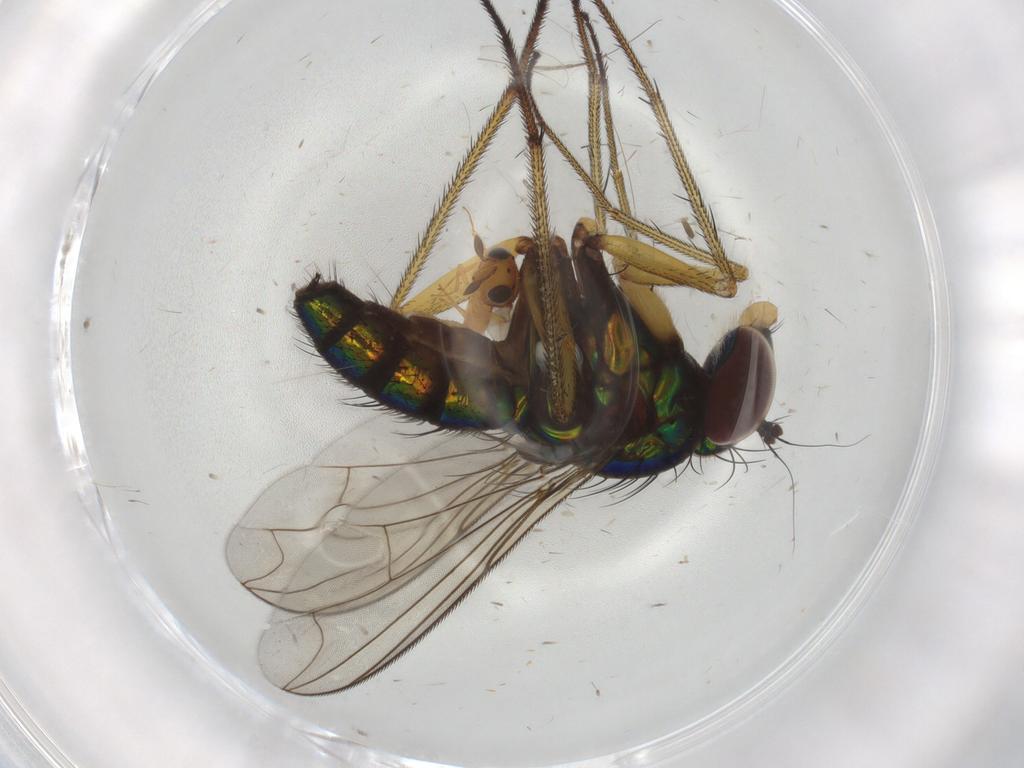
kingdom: Animalia
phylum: Arthropoda
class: Insecta
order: Diptera
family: Dolichopodidae
